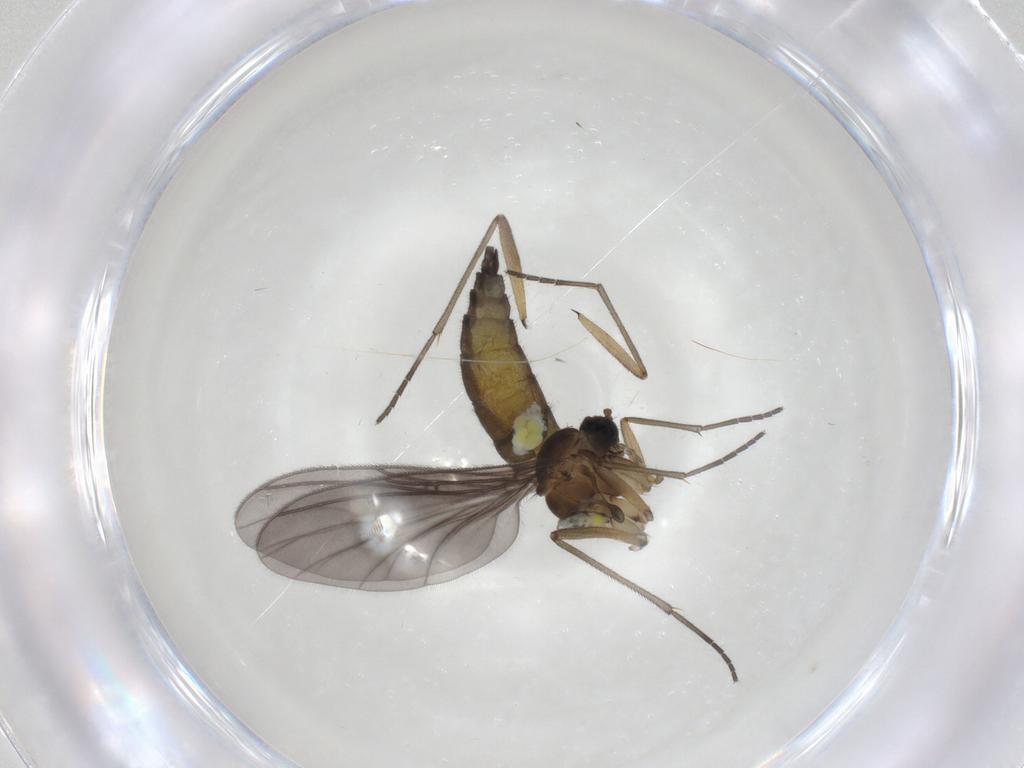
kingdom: Animalia
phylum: Arthropoda
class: Insecta
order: Diptera
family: Sciaridae
